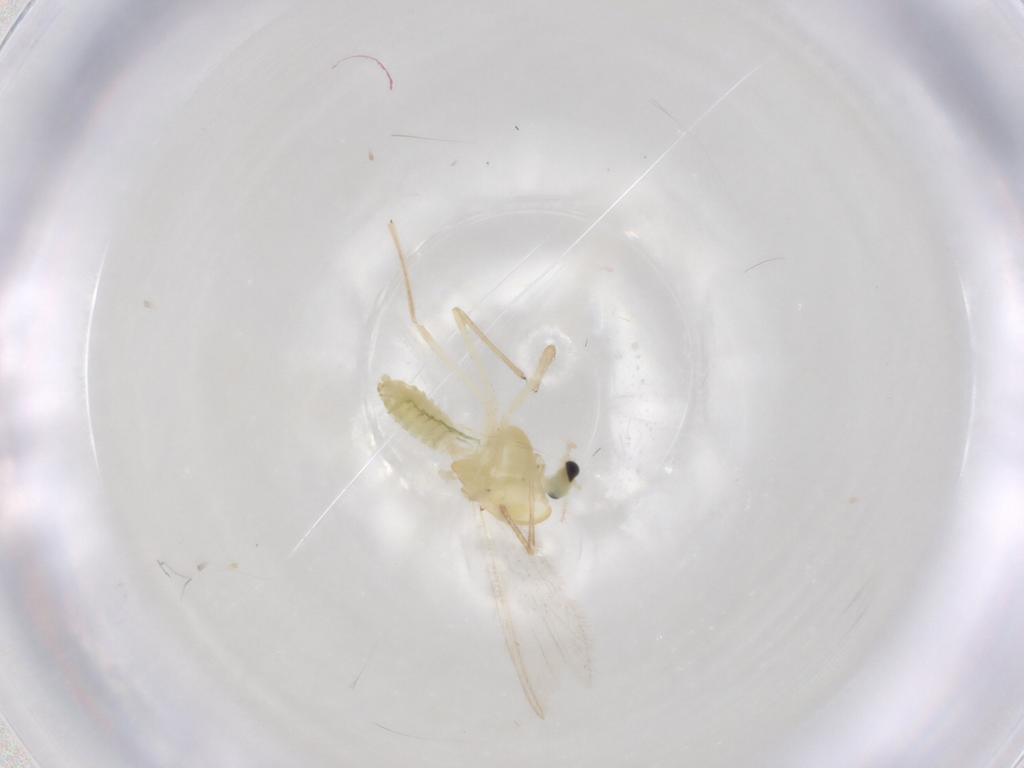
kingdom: Animalia
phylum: Arthropoda
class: Insecta
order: Diptera
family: Chironomidae
